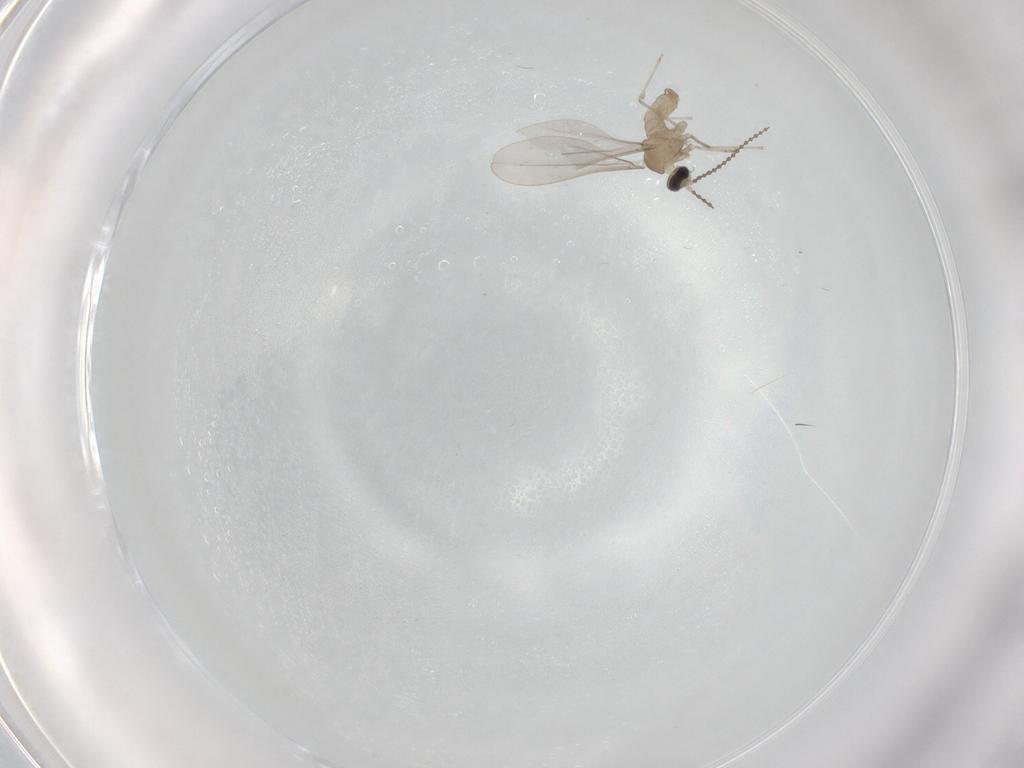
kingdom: Animalia
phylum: Arthropoda
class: Insecta
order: Diptera
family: Cecidomyiidae
